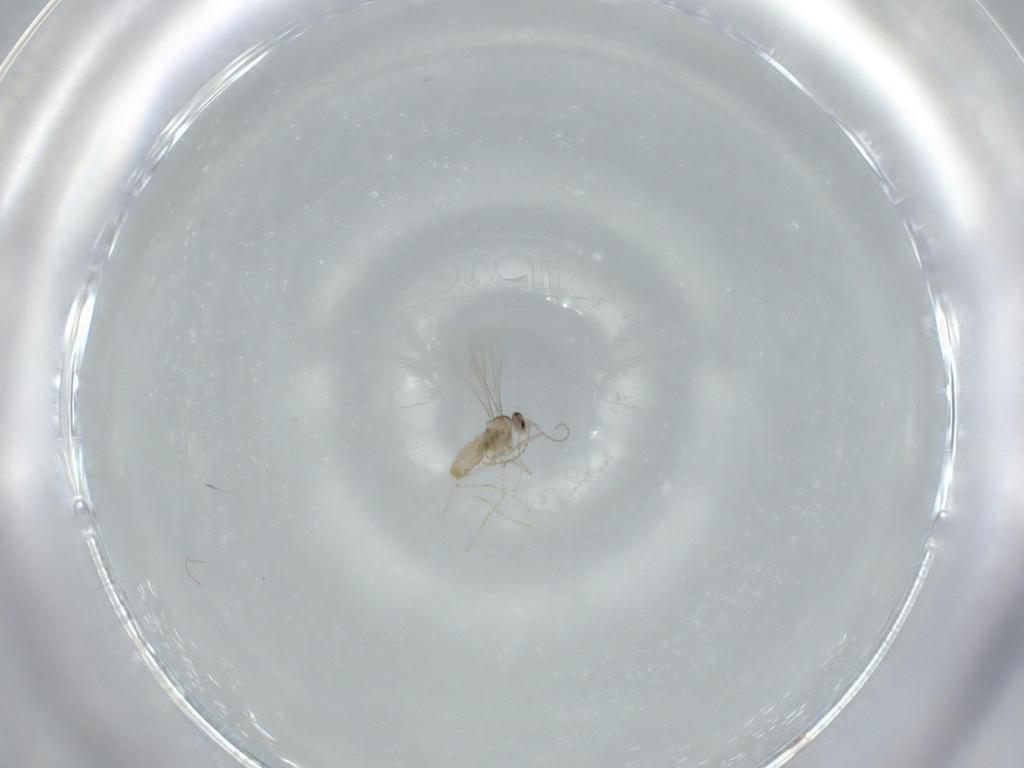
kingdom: Animalia
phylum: Arthropoda
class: Insecta
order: Diptera
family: Cecidomyiidae
